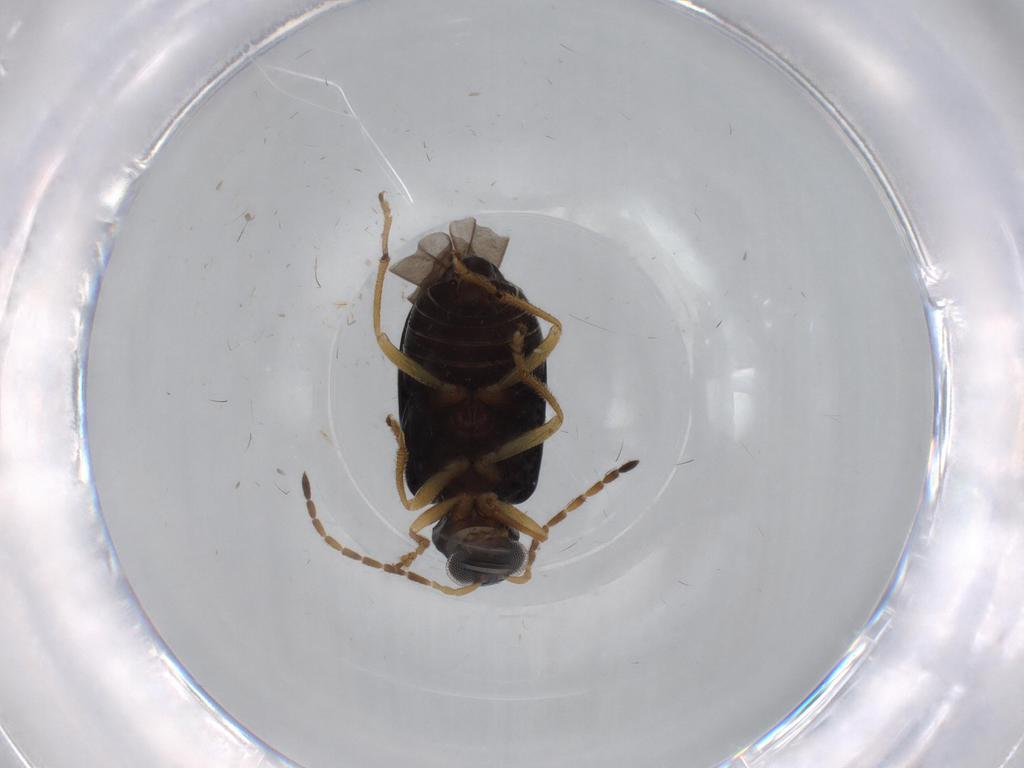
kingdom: Animalia
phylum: Arthropoda
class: Insecta
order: Coleoptera
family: Chrysomelidae
